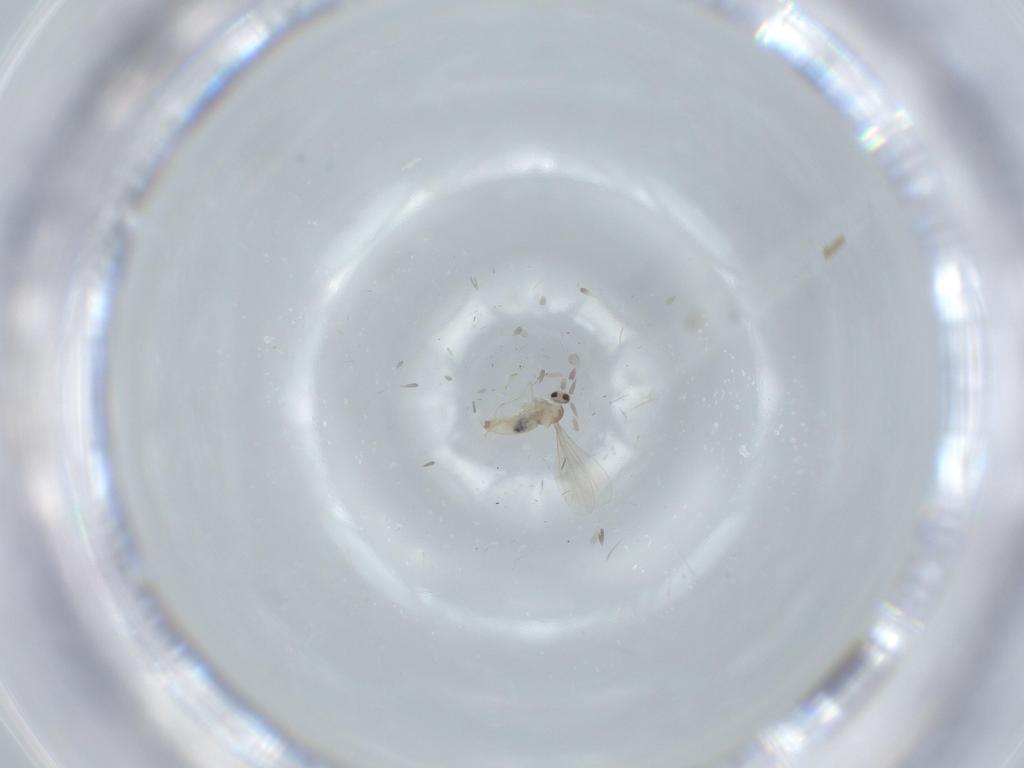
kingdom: Animalia
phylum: Arthropoda
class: Insecta
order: Diptera
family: Cecidomyiidae
